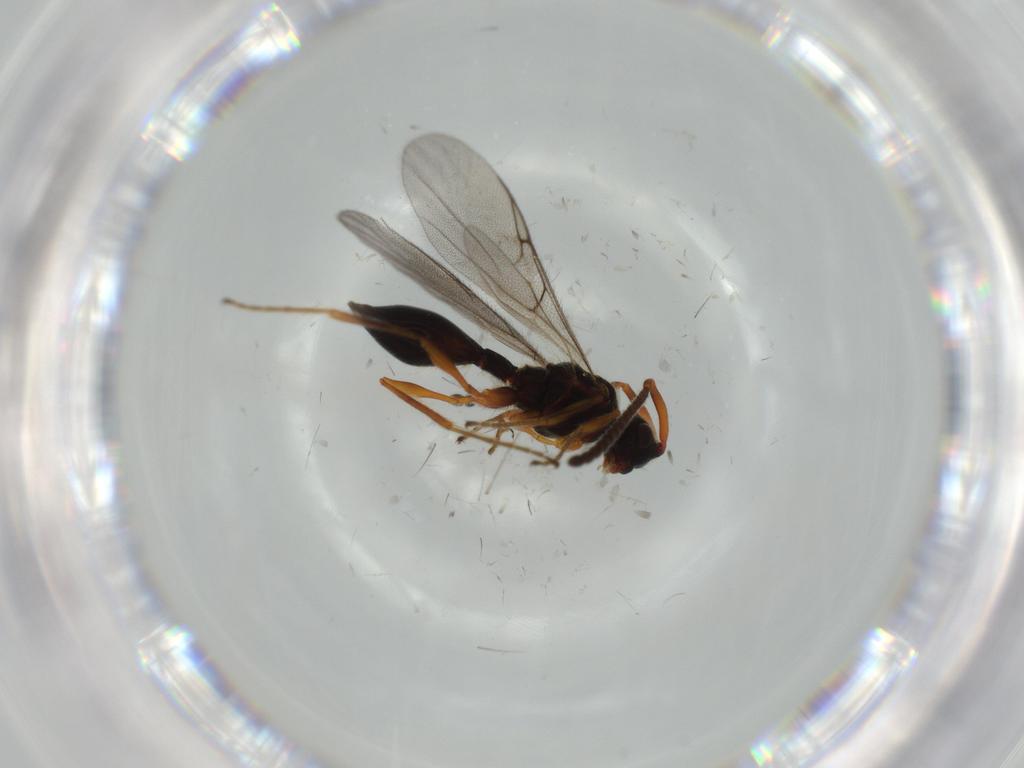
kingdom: Animalia
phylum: Arthropoda
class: Insecta
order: Hymenoptera
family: Diapriidae
